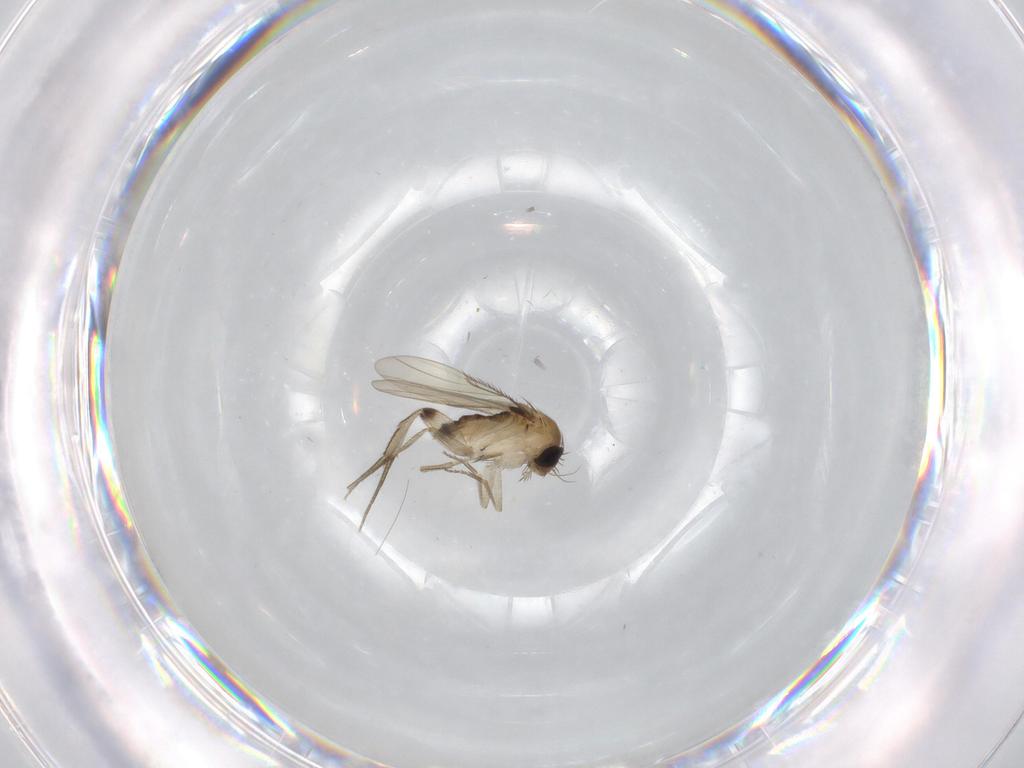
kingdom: Animalia
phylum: Arthropoda
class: Insecta
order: Diptera
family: Phoridae
